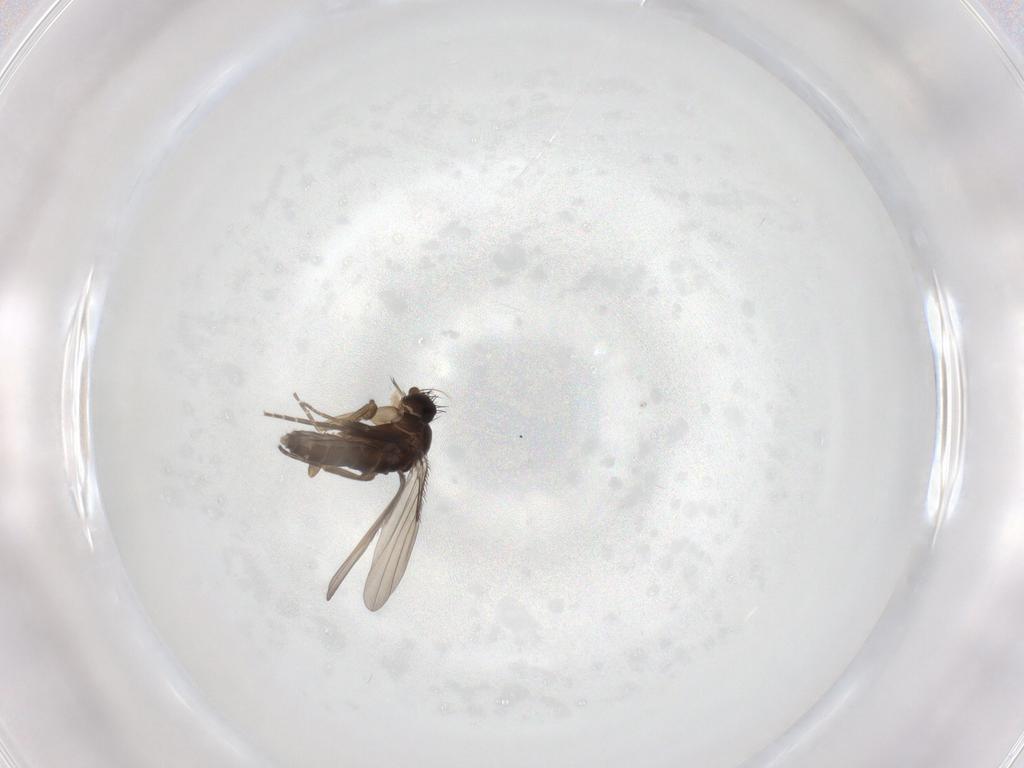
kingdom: Animalia
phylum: Arthropoda
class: Insecta
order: Diptera
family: Phoridae
